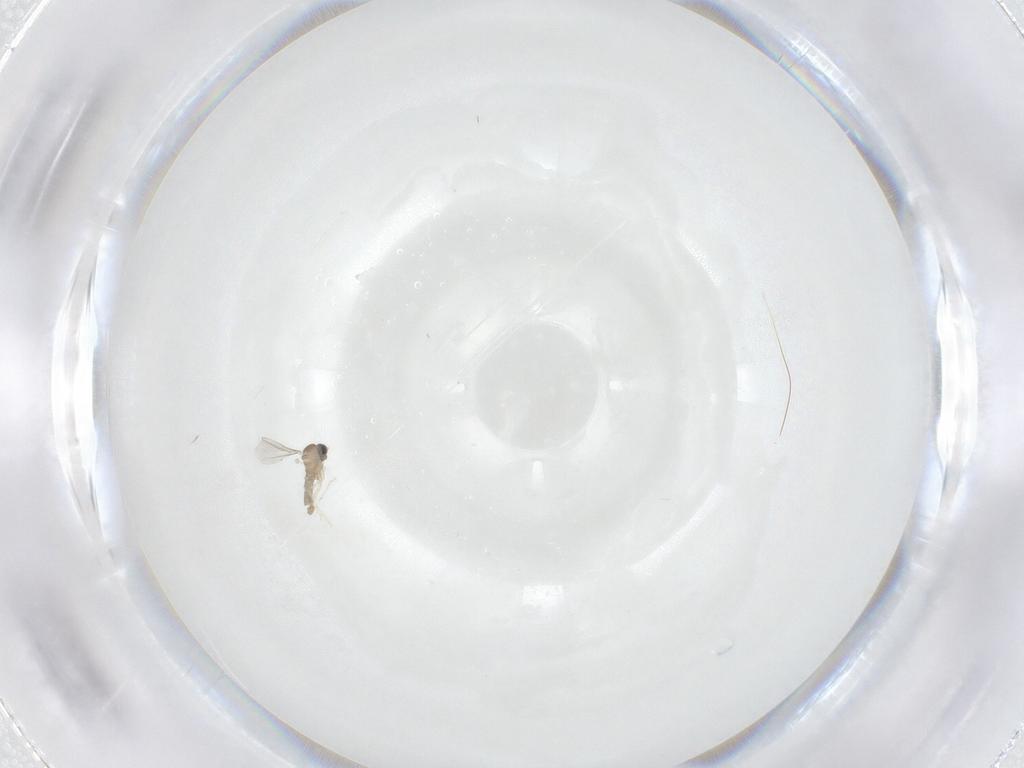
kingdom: Animalia
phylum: Arthropoda
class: Insecta
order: Diptera
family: Cecidomyiidae
